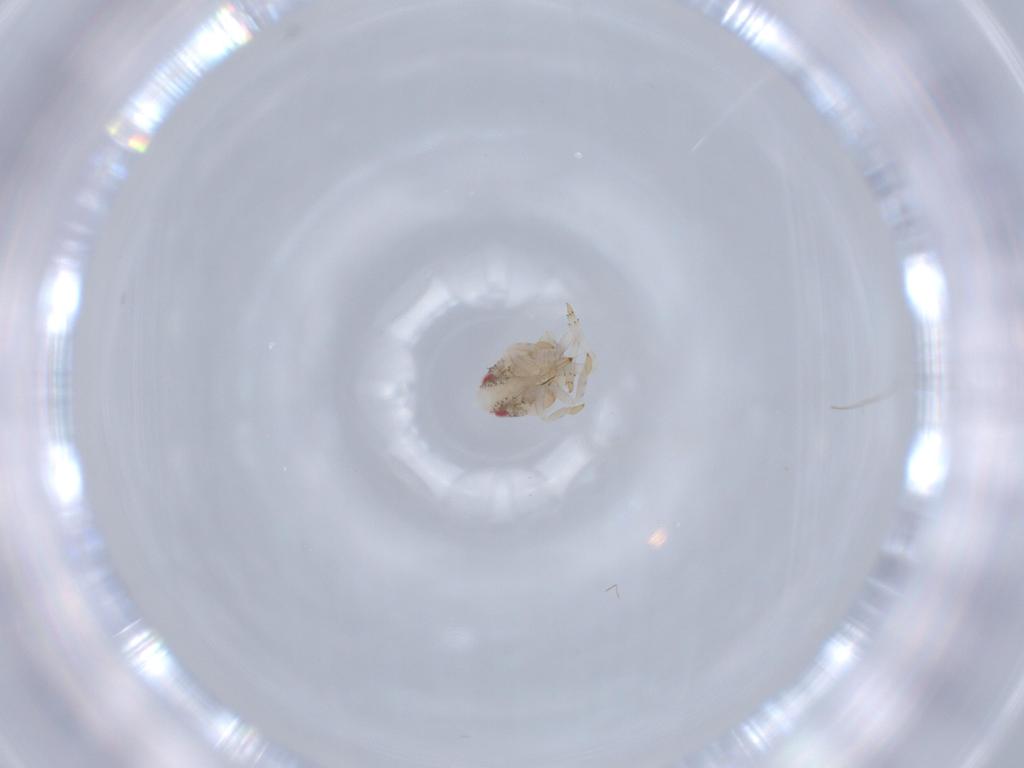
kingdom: Animalia
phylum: Arthropoda
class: Insecta
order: Hemiptera
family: Acanaloniidae
